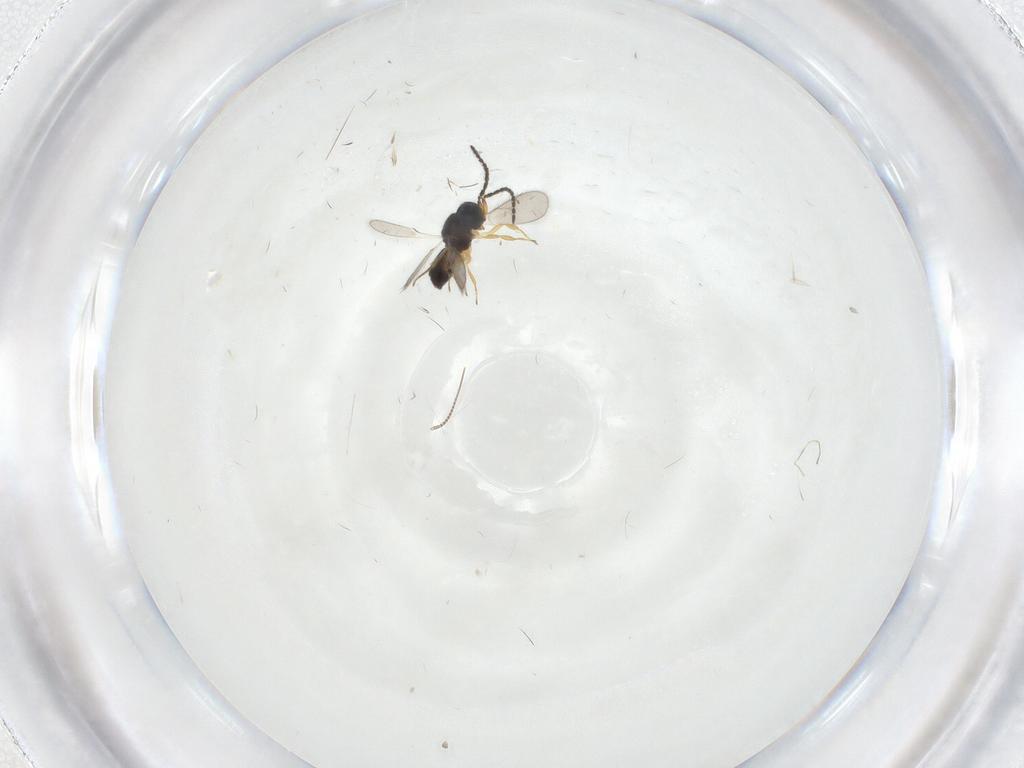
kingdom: Animalia
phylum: Arthropoda
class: Insecta
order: Hymenoptera
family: Scelionidae
